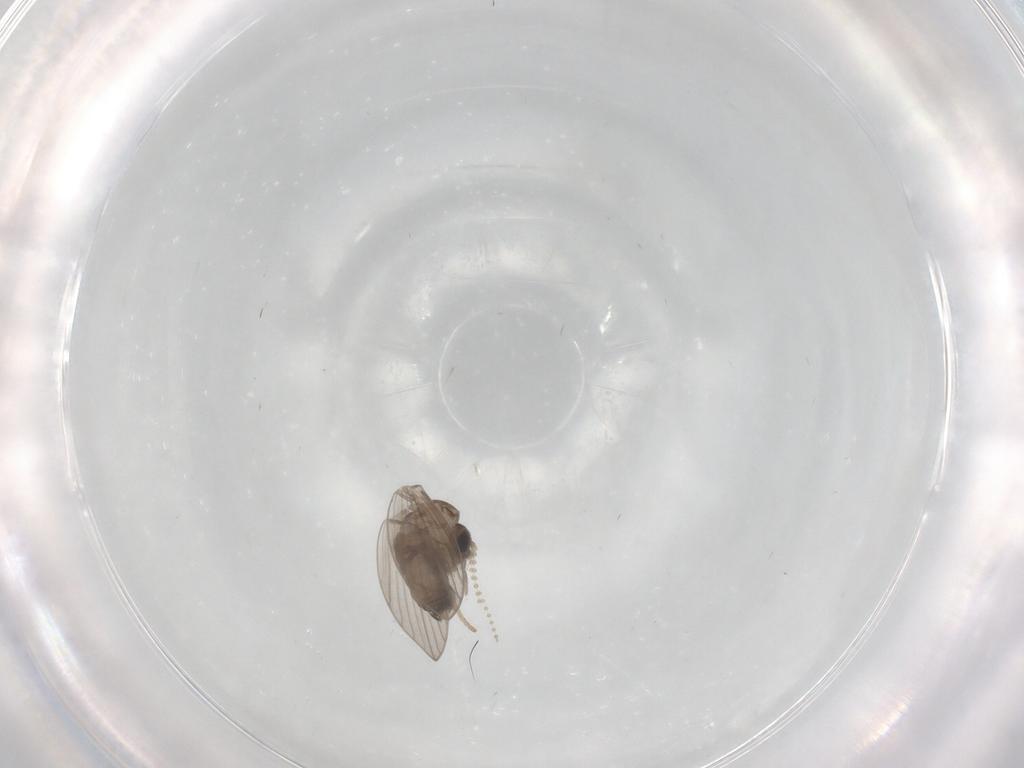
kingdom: Animalia
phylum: Arthropoda
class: Insecta
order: Diptera
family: Psychodidae
